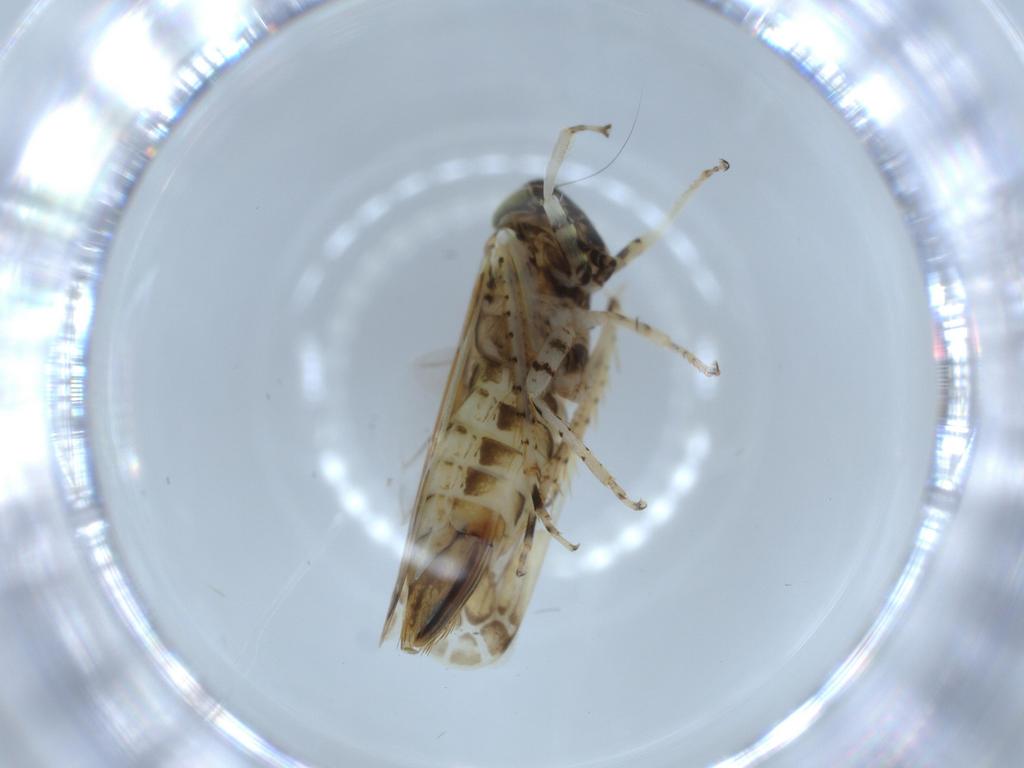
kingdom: Animalia
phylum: Arthropoda
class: Insecta
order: Hemiptera
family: Cicadellidae
